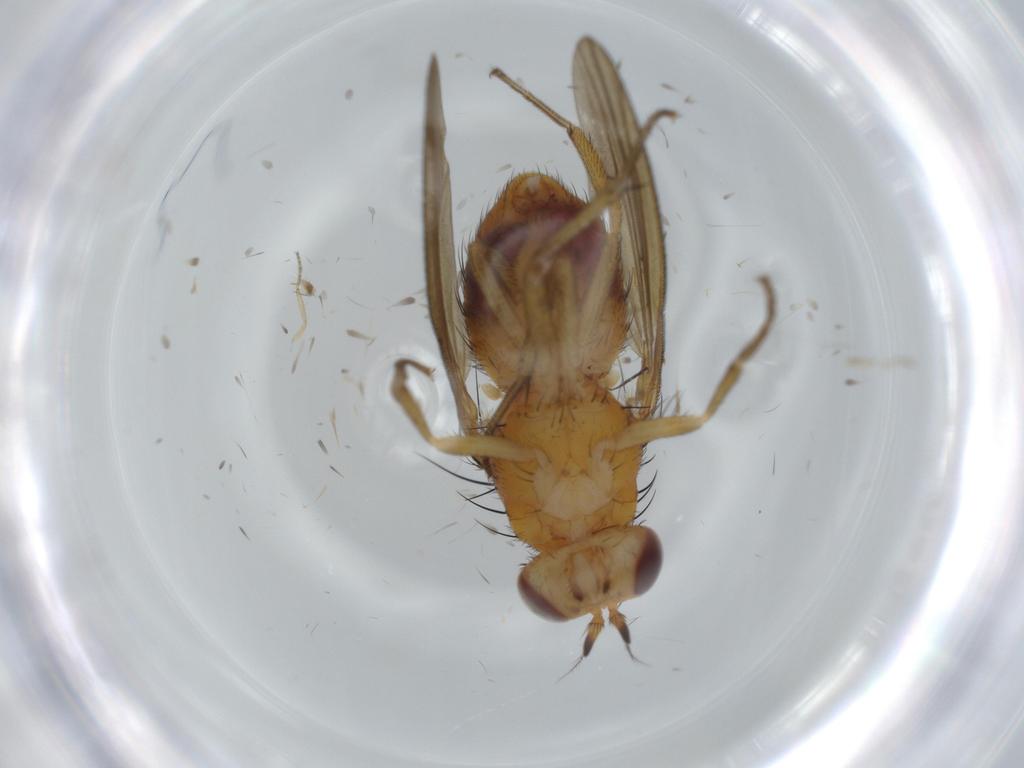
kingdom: Animalia
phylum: Arthropoda
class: Insecta
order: Diptera
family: Lauxaniidae
